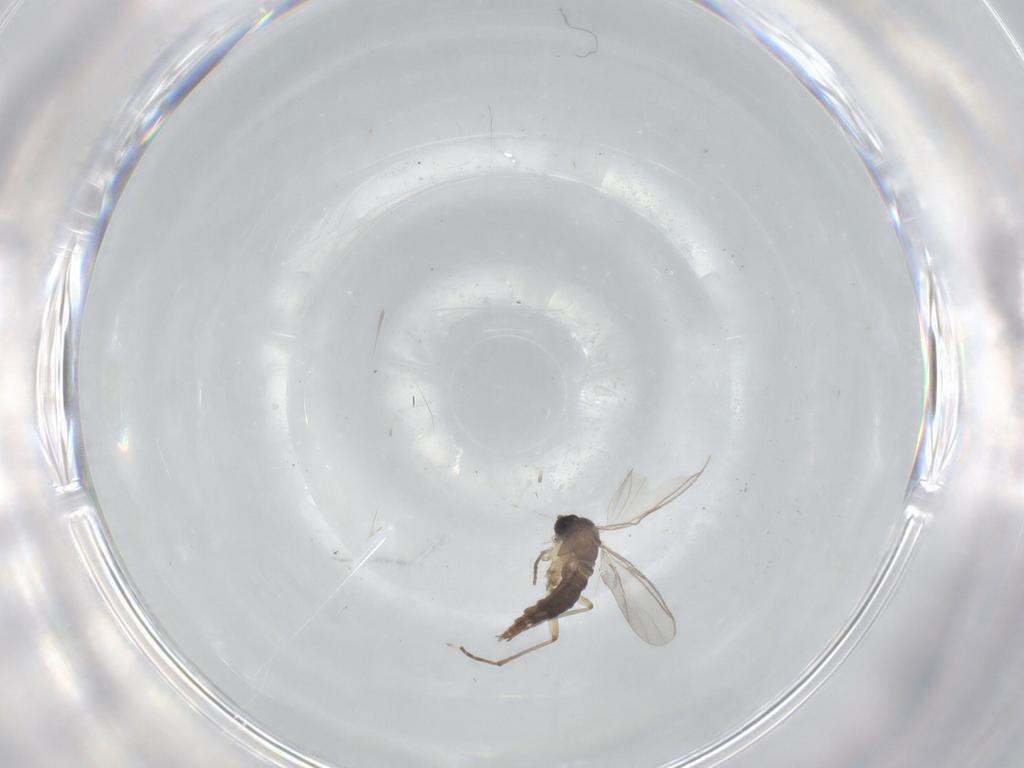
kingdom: Animalia
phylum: Arthropoda
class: Insecta
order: Diptera
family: Sciaridae
